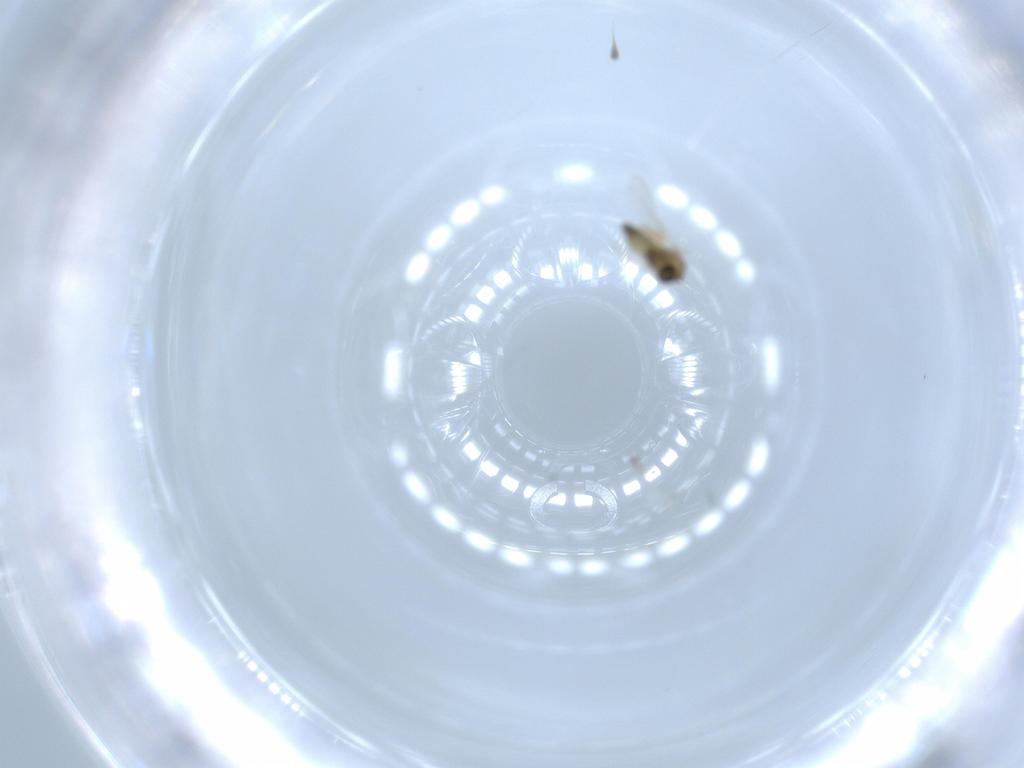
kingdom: Animalia
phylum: Arthropoda
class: Insecta
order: Diptera
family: Chironomidae
